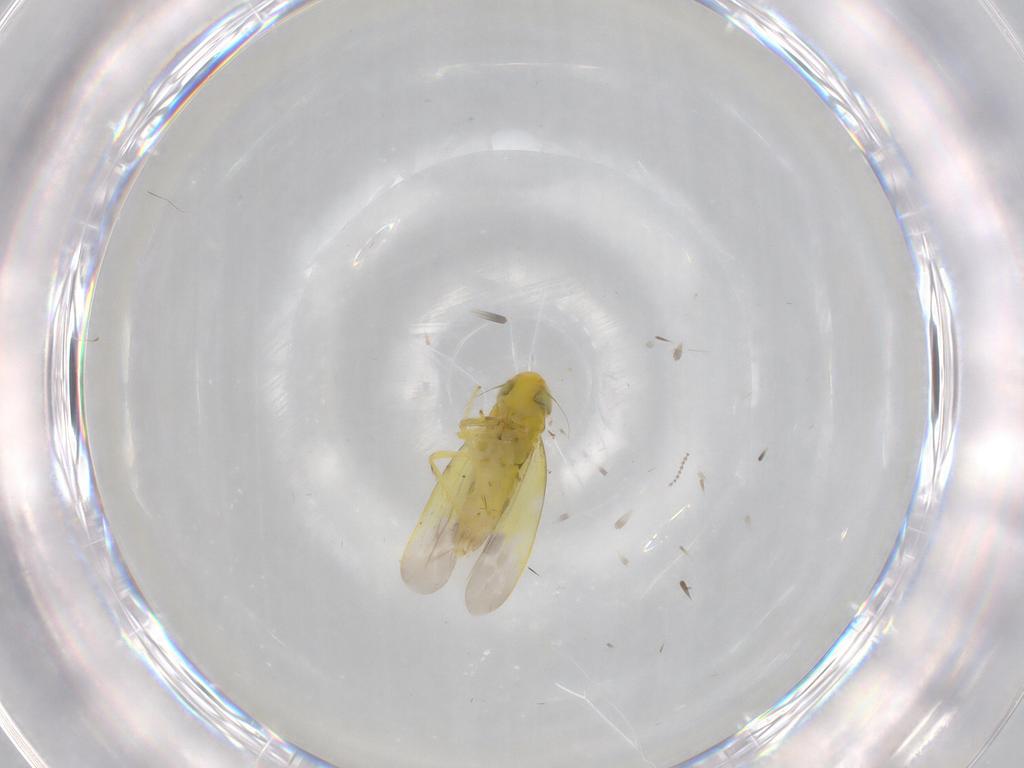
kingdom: Animalia
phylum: Arthropoda
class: Insecta
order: Hemiptera
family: Cicadellidae
